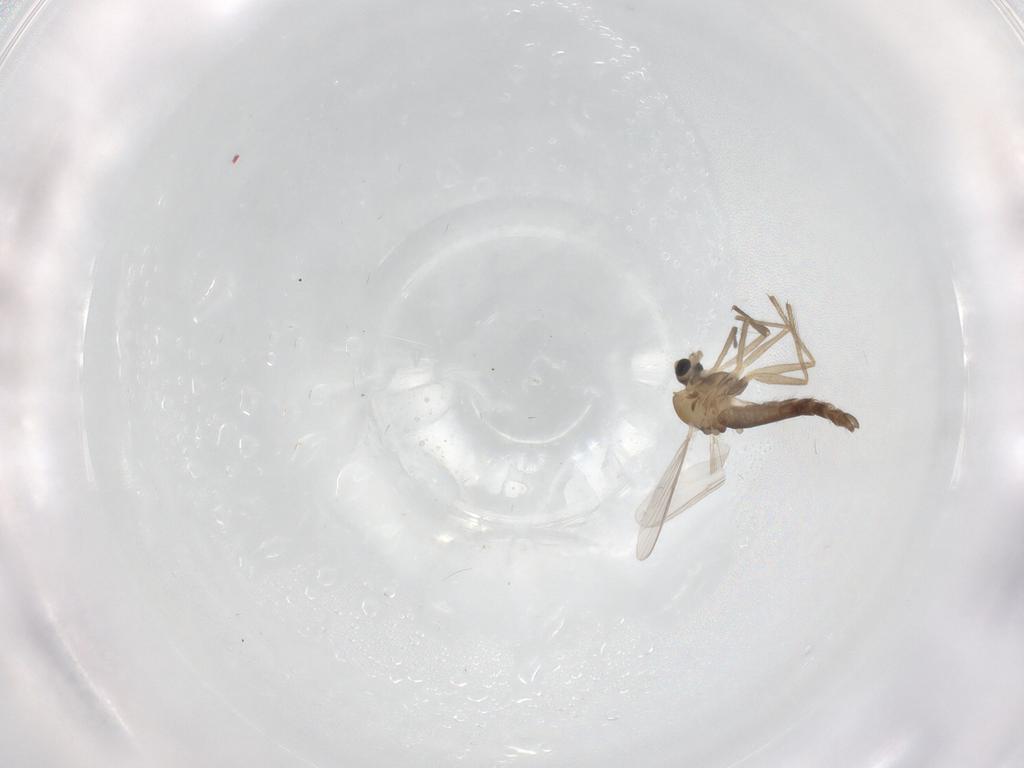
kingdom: Animalia
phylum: Arthropoda
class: Insecta
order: Diptera
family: Chironomidae
